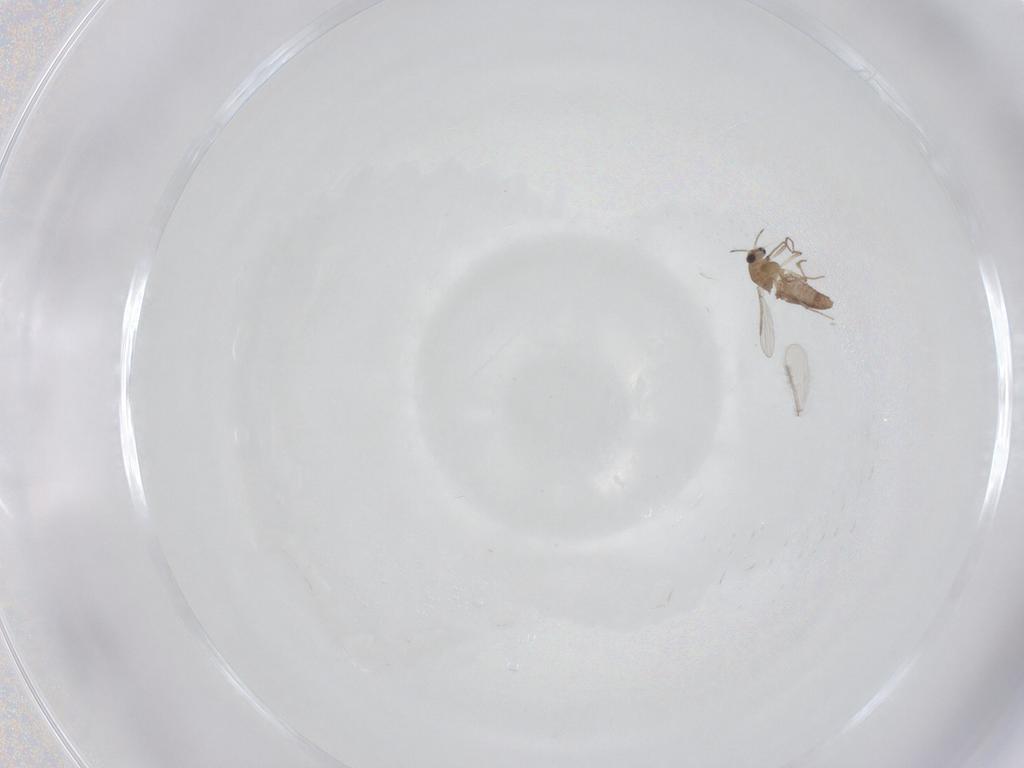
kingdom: Animalia
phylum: Arthropoda
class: Insecta
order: Diptera
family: Chironomidae
